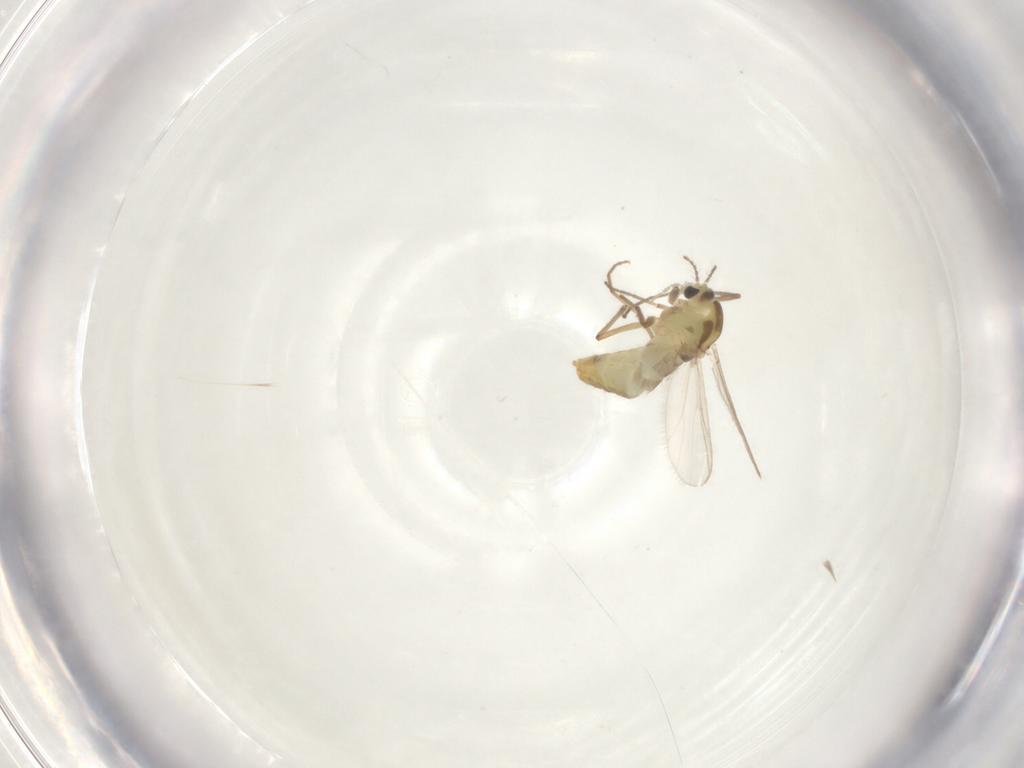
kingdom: Animalia
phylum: Arthropoda
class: Insecta
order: Diptera
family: Chironomidae
